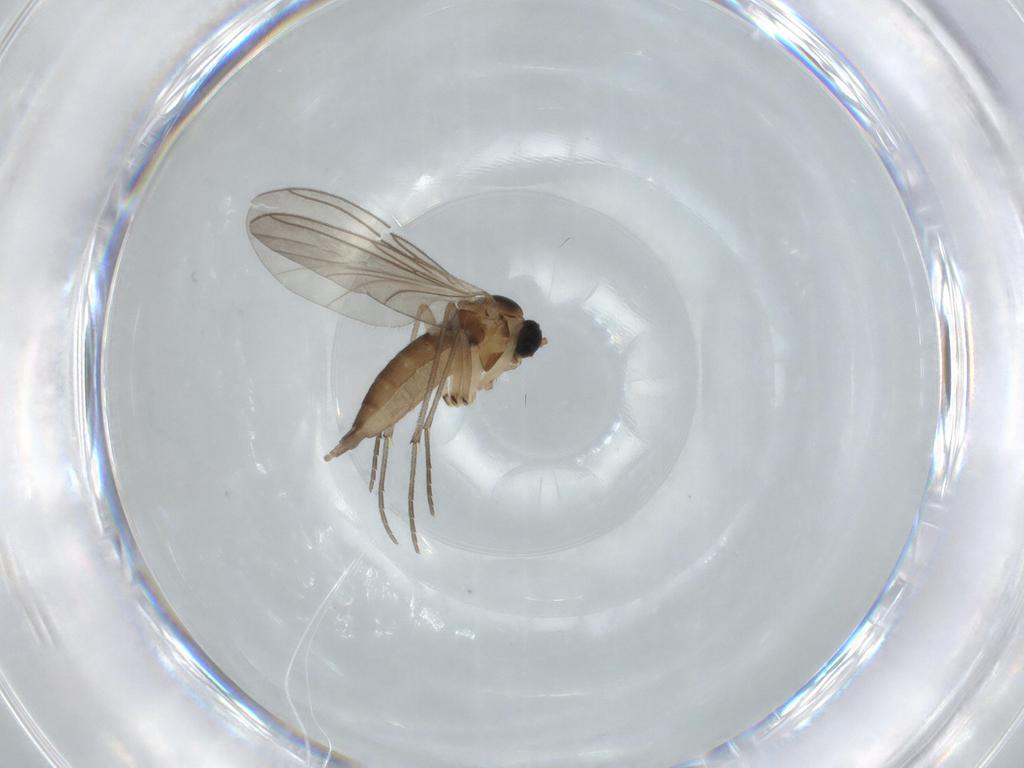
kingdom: Animalia
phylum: Arthropoda
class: Insecta
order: Diptera
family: Sciaridae
